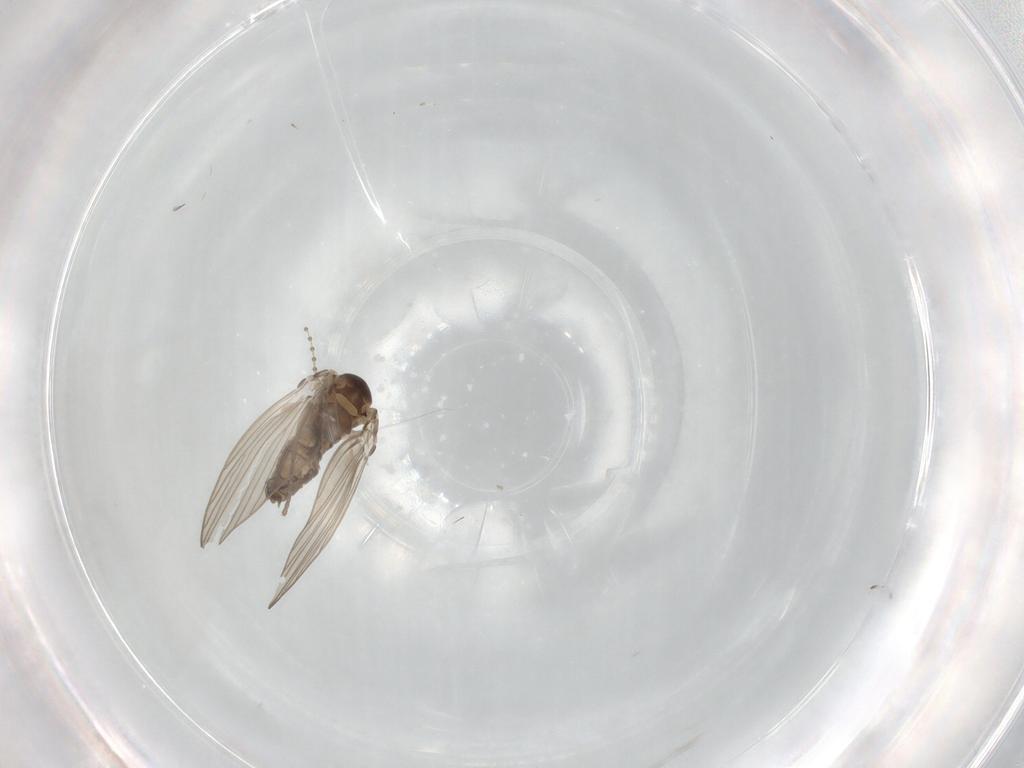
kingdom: Animalia
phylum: Arthropoda
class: Insecta
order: Diptera
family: Psychodidae
